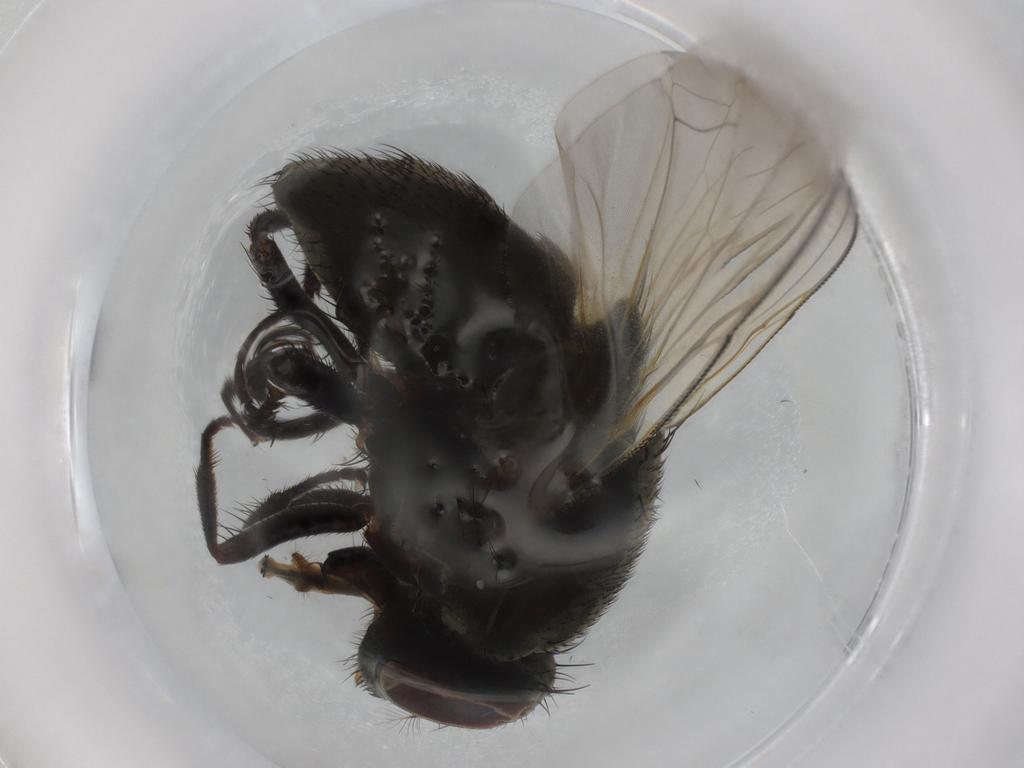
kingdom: Animalia
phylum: Arthropoda
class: Insecta
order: Diptera
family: Muscidae
